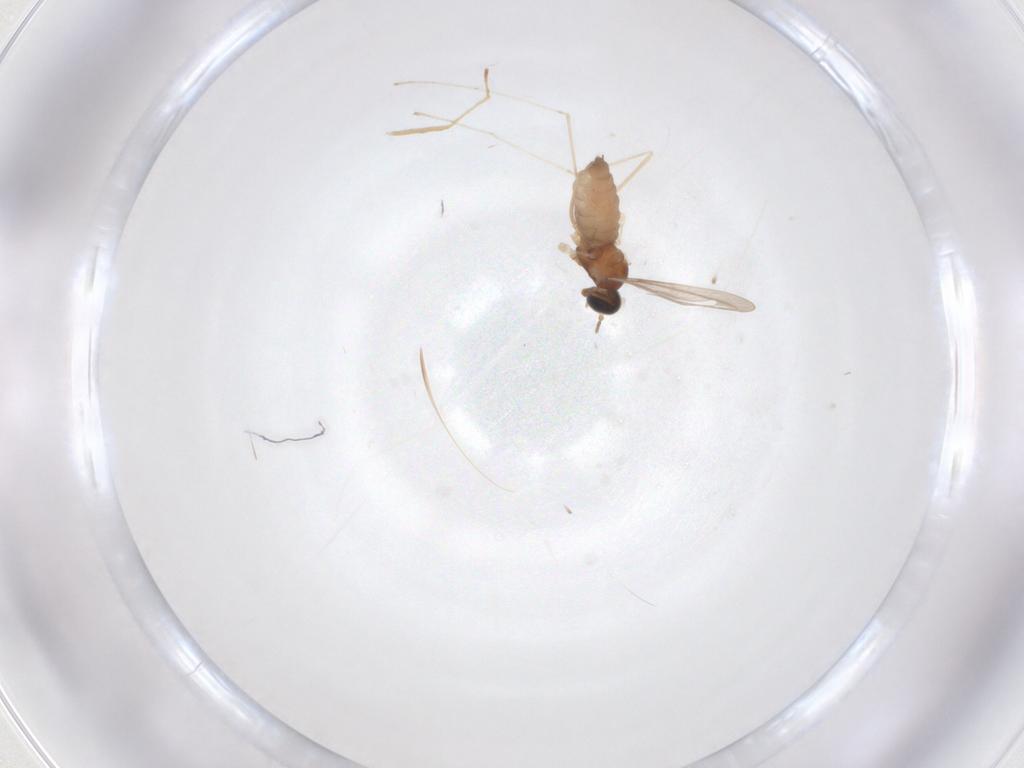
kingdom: Animalia
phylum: Arthropoda
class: Insecta
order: Diptera
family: Cecidomyiidae
